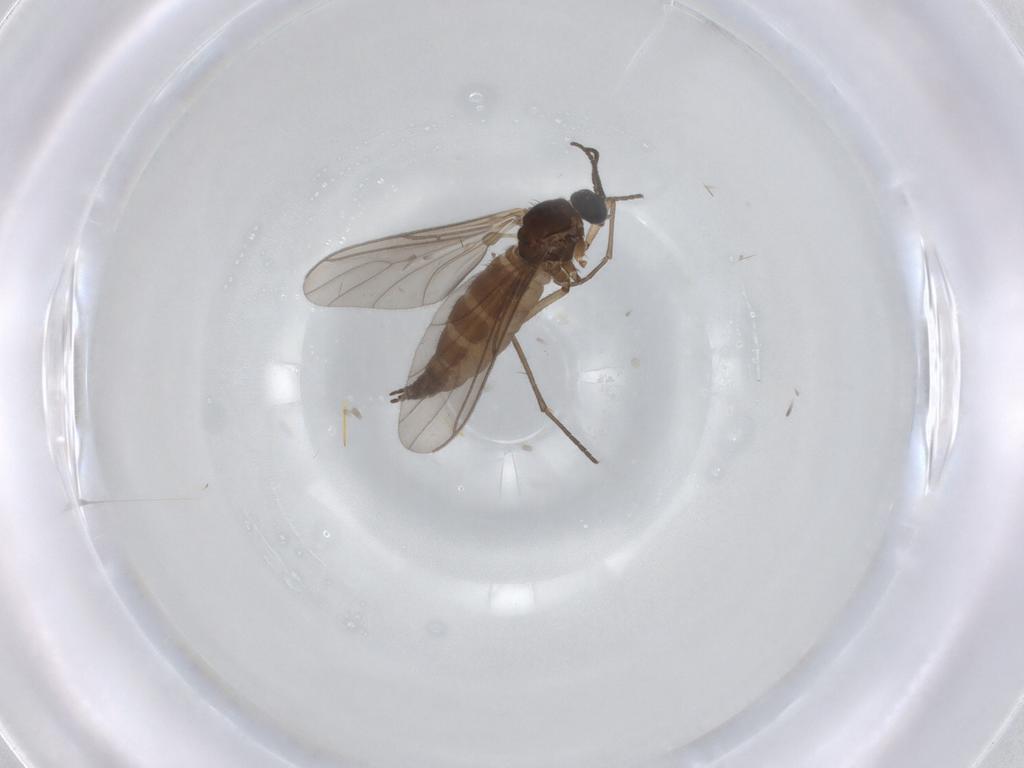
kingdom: Animalia
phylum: Arthropoda
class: Insecta
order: Diptera
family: Sciaridae
